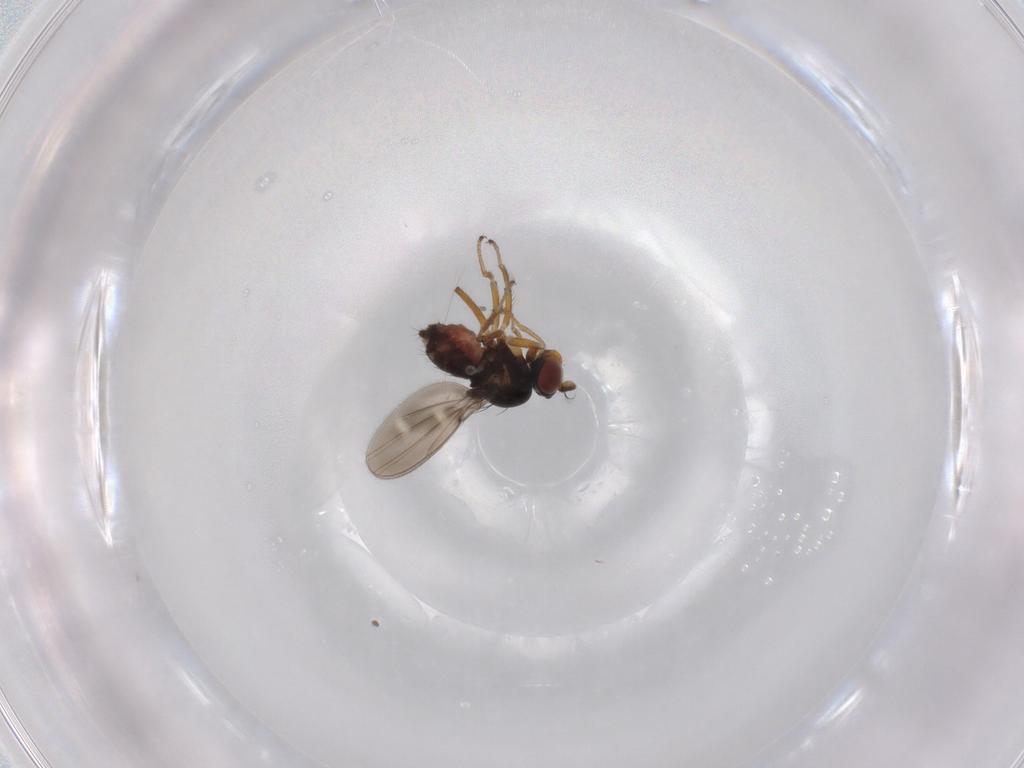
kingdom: Animalia
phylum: Arthropoda
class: Insecta
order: Diptera
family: Ephydridae
